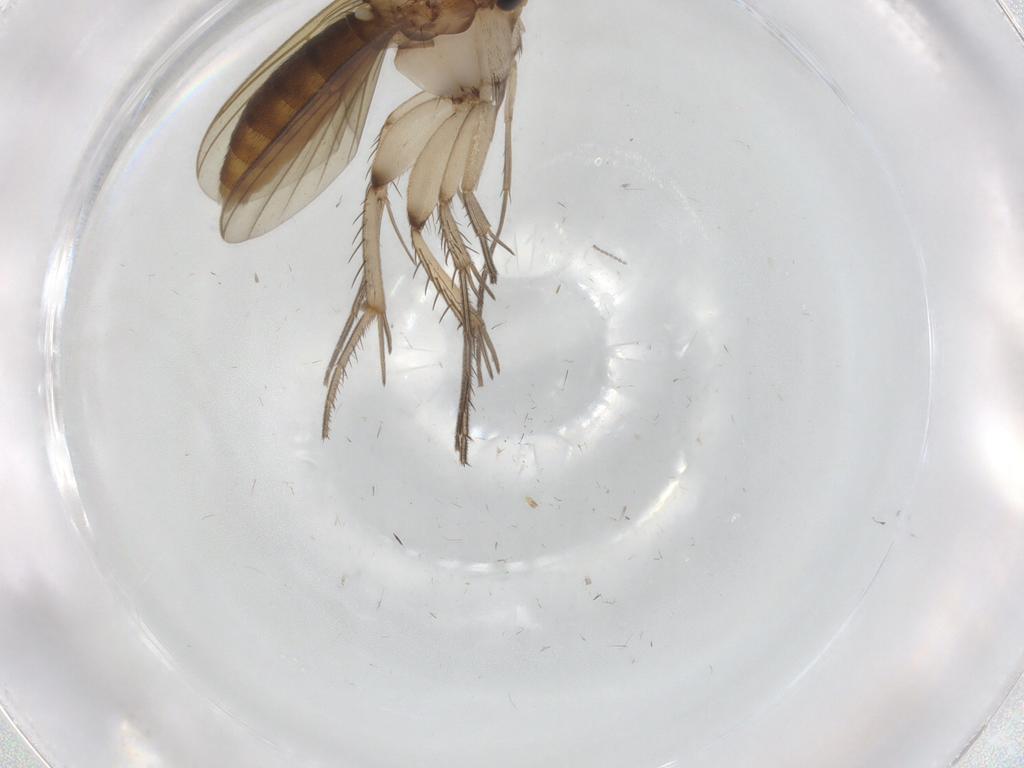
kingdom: Animalia
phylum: Arthropoda
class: Insecta
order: Diptera
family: Mycetophilidae
